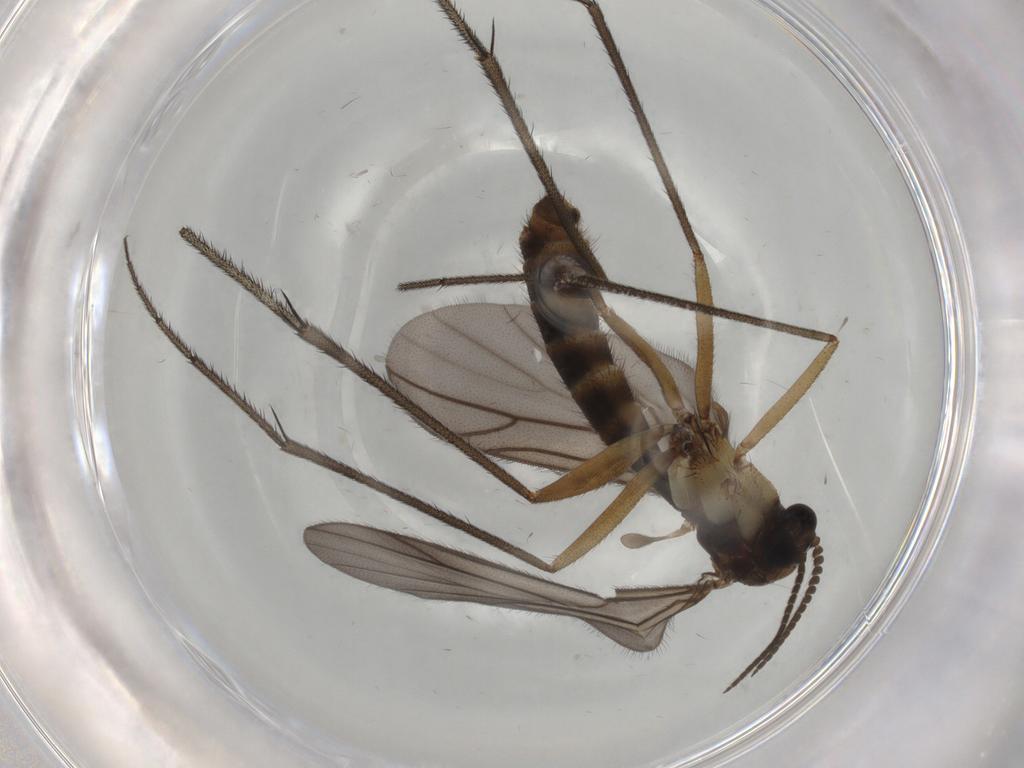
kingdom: Animalia
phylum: Arthropoda
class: Insecta
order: Diptera
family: Ditomyiidae
